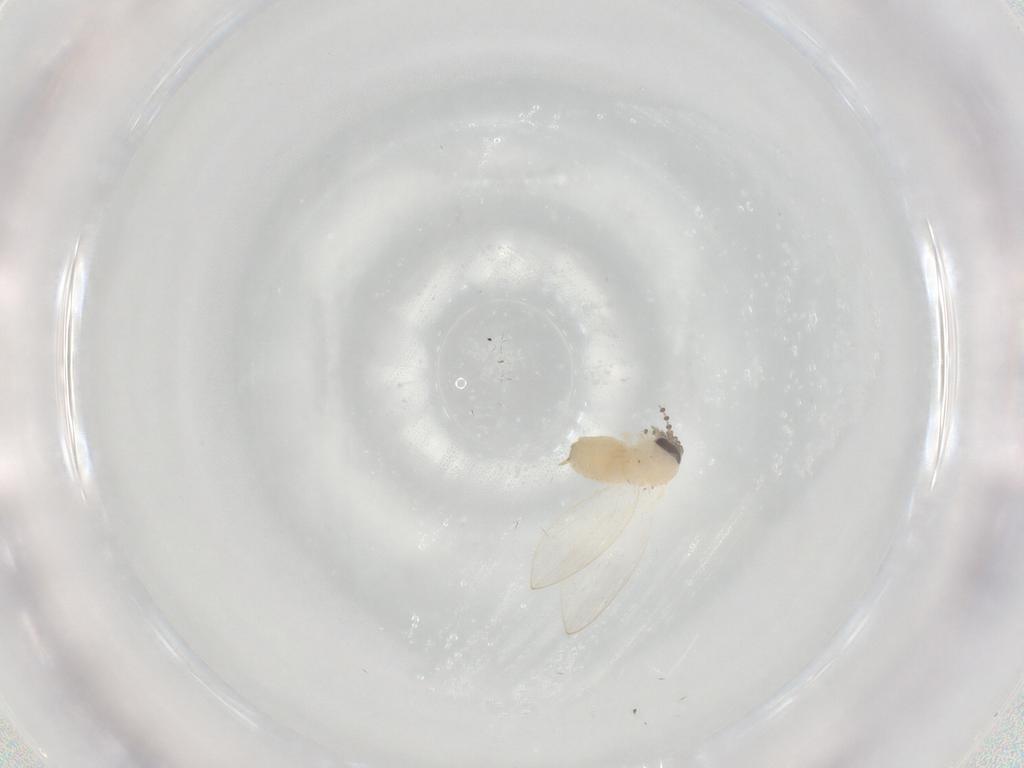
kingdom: Animalia
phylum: Arthropoda
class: Insecta
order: Diptera
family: Psychodidae
